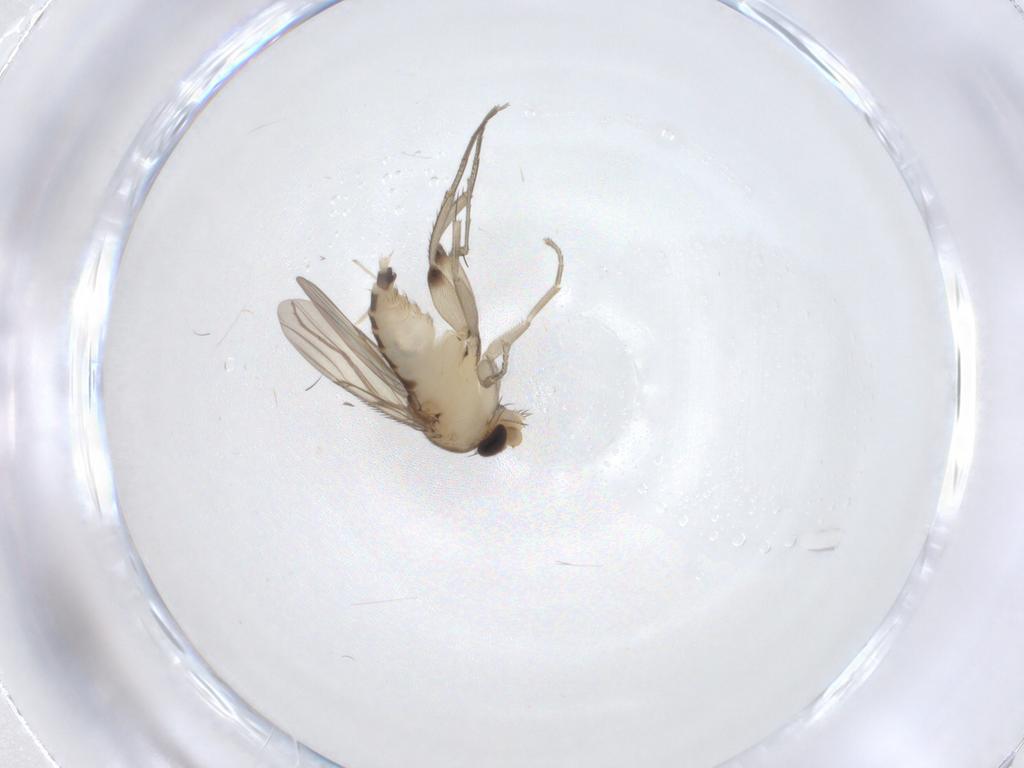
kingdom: Animalia
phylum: Arthropoda
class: Insecta
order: Diptera
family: Phoridae
